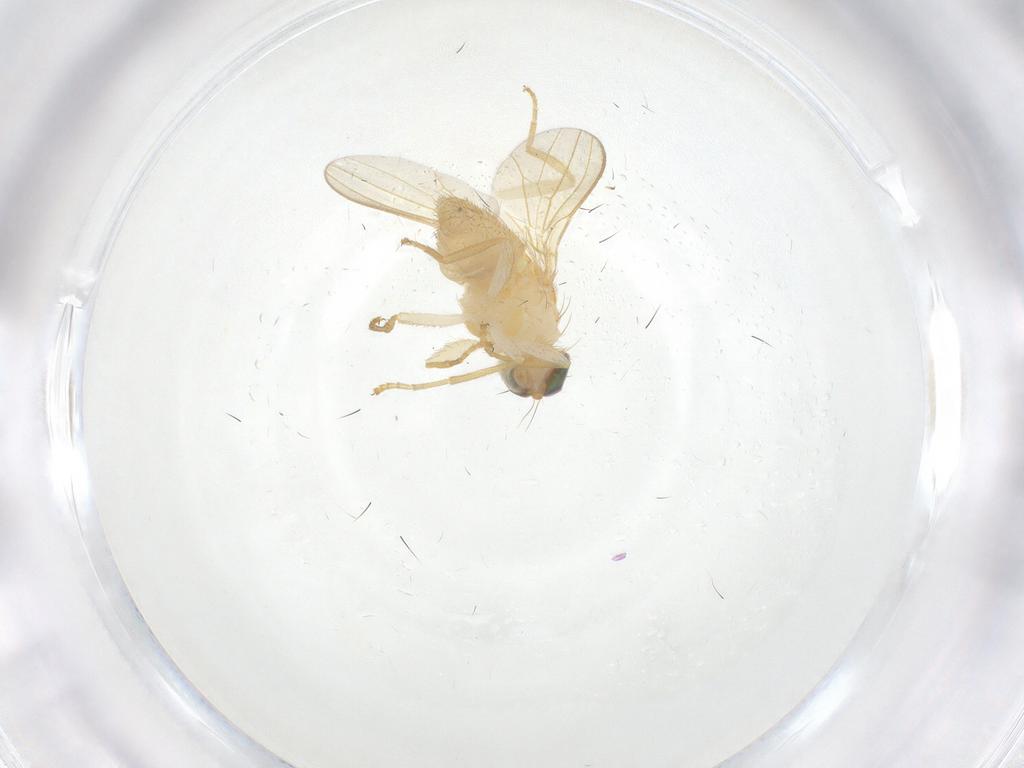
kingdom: Animalia
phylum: Arthropoda
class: Insecta
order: Diptera
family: Chyromyidae
